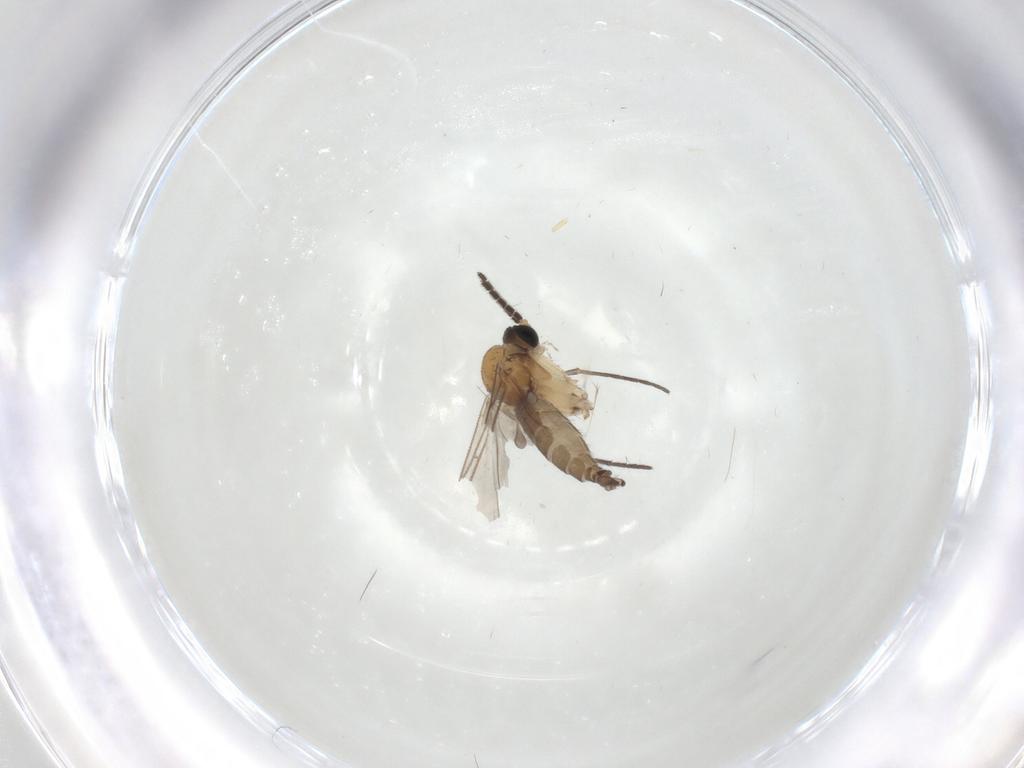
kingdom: Animalia
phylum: Arthropoda
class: Insecta
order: Diptera
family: Sciaridae
